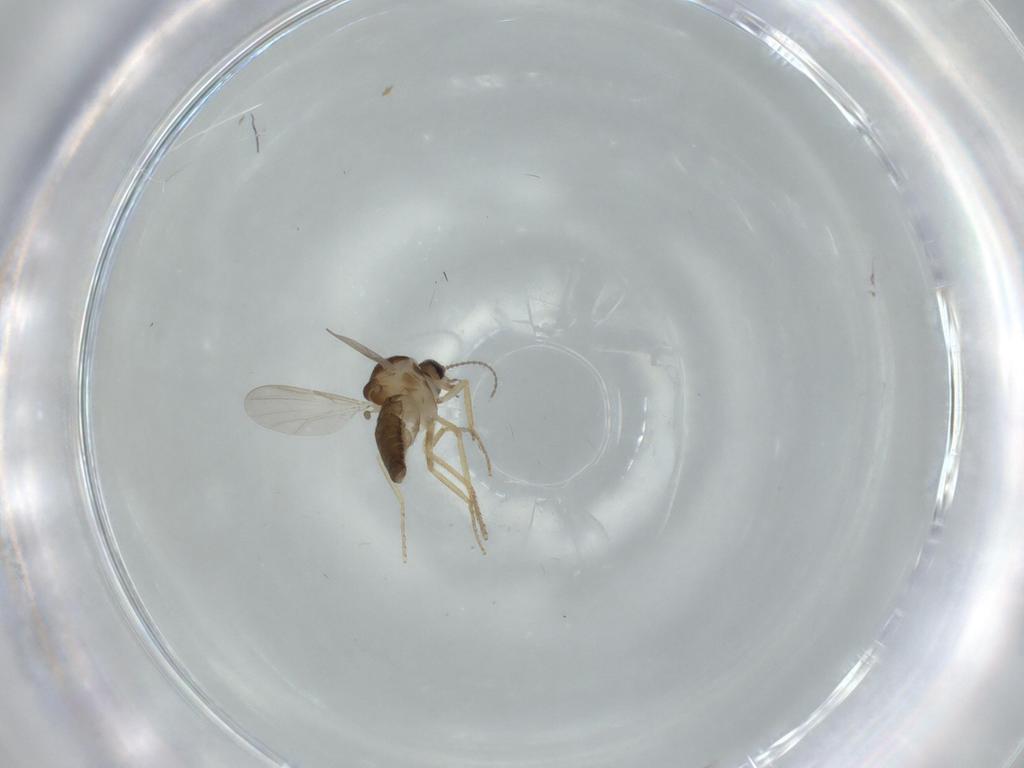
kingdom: Animalia
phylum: Arthropoda
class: Insecta
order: Diptera
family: Ceratopogonidae
